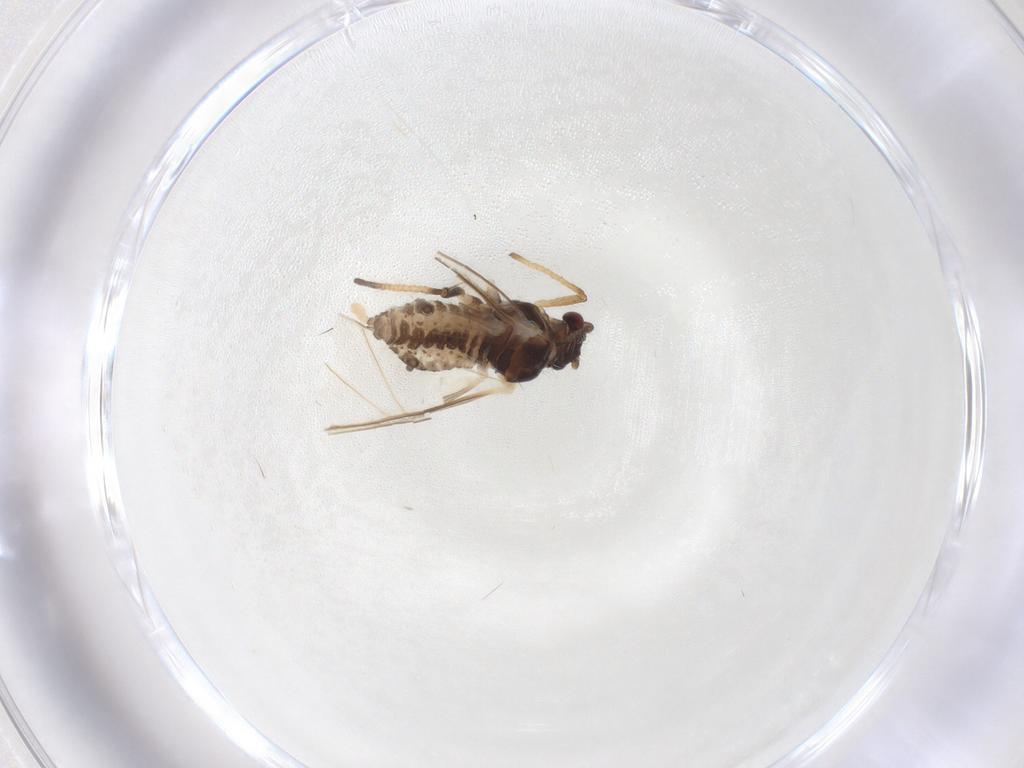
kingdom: Animalia
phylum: Arthropoda
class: Insecta
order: Hemiptera
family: Aphididae
